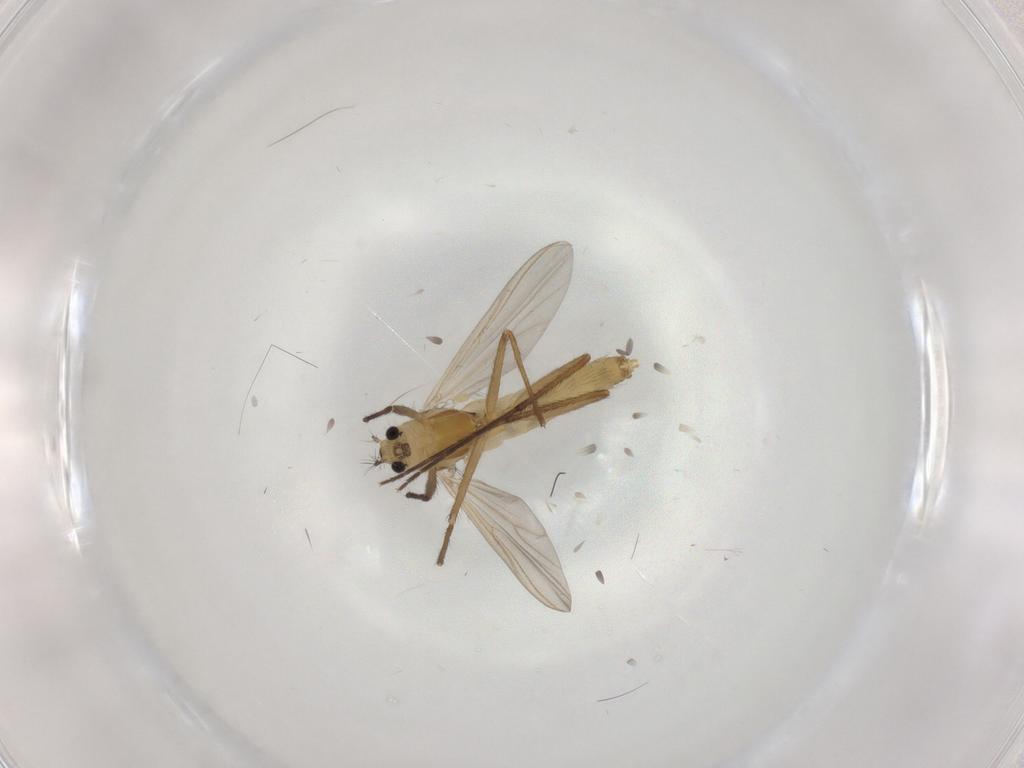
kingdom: Animalia
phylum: Arthropoda
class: Insecta
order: Diptera
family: Chironomidae
